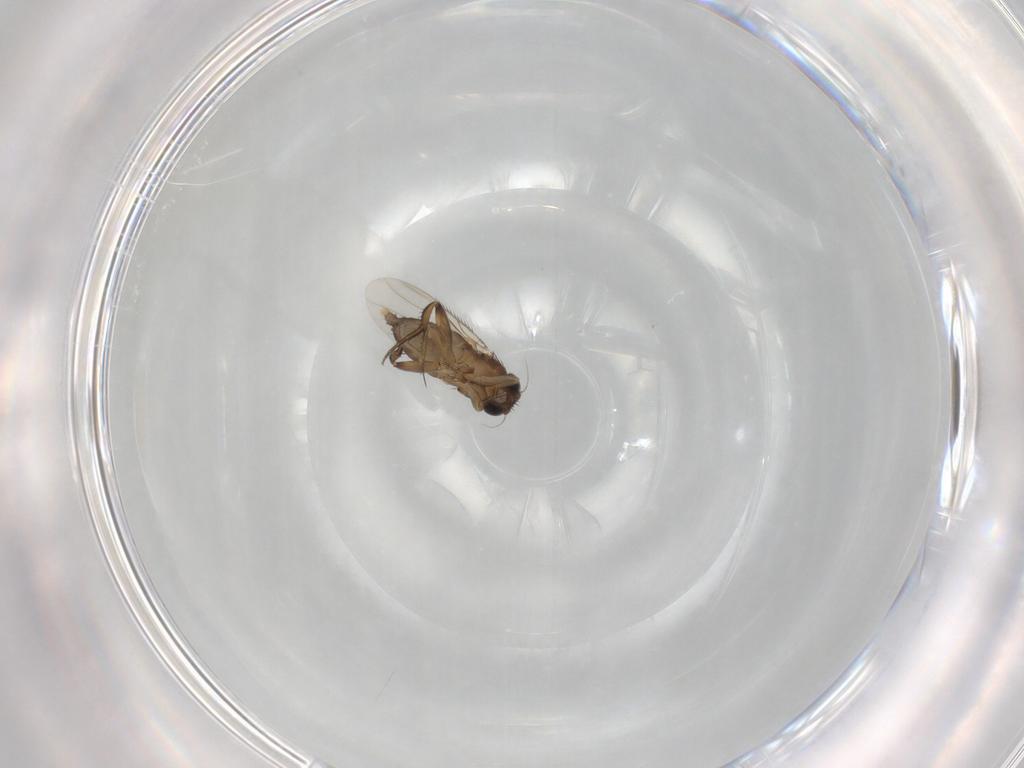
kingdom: Animalia
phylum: Arthropoda
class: Insecta
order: Diptera
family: Phoridae
